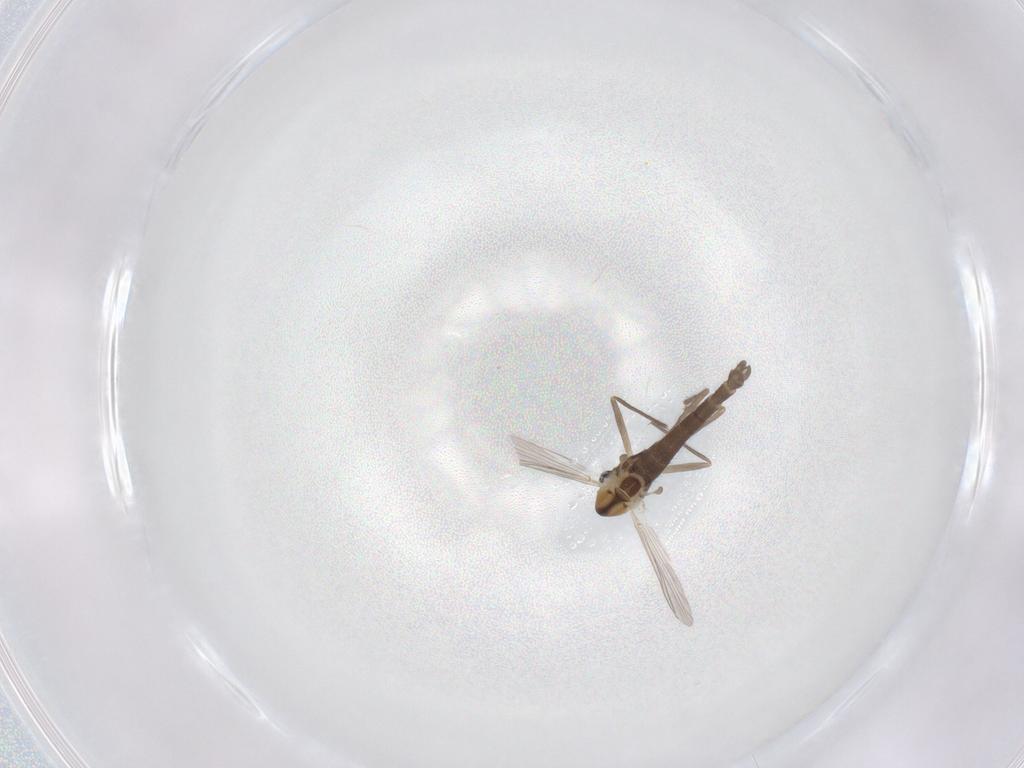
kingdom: Animalia
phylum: Arthropoda
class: Insecta
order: Diptera
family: Chironomidae
